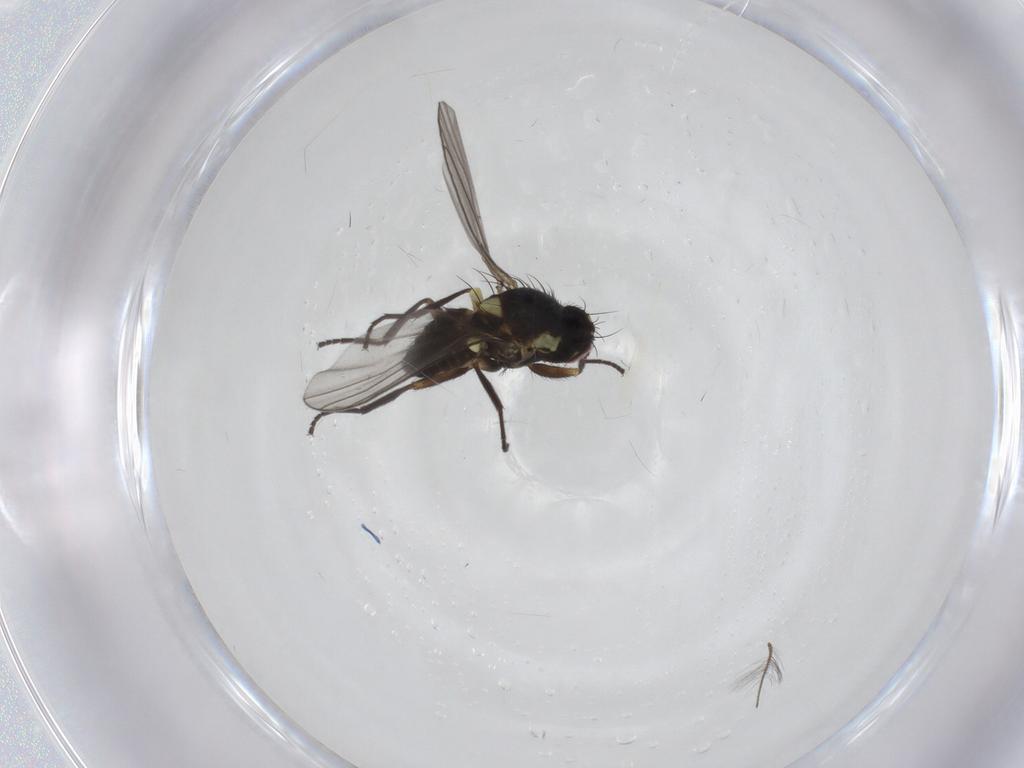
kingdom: Animalia
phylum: Arthropoda
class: Insecta
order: Diptera
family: Agromyzidae
